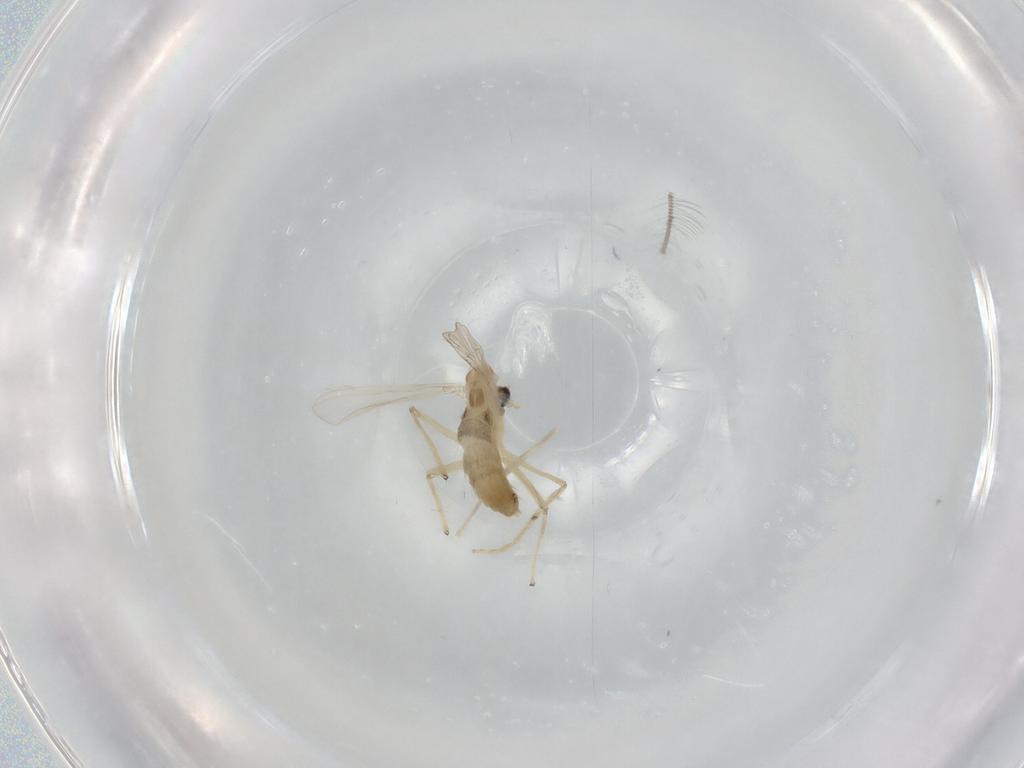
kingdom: Animalia
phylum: Arthropoda
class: Insecta
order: Diptera
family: Chironomidae
